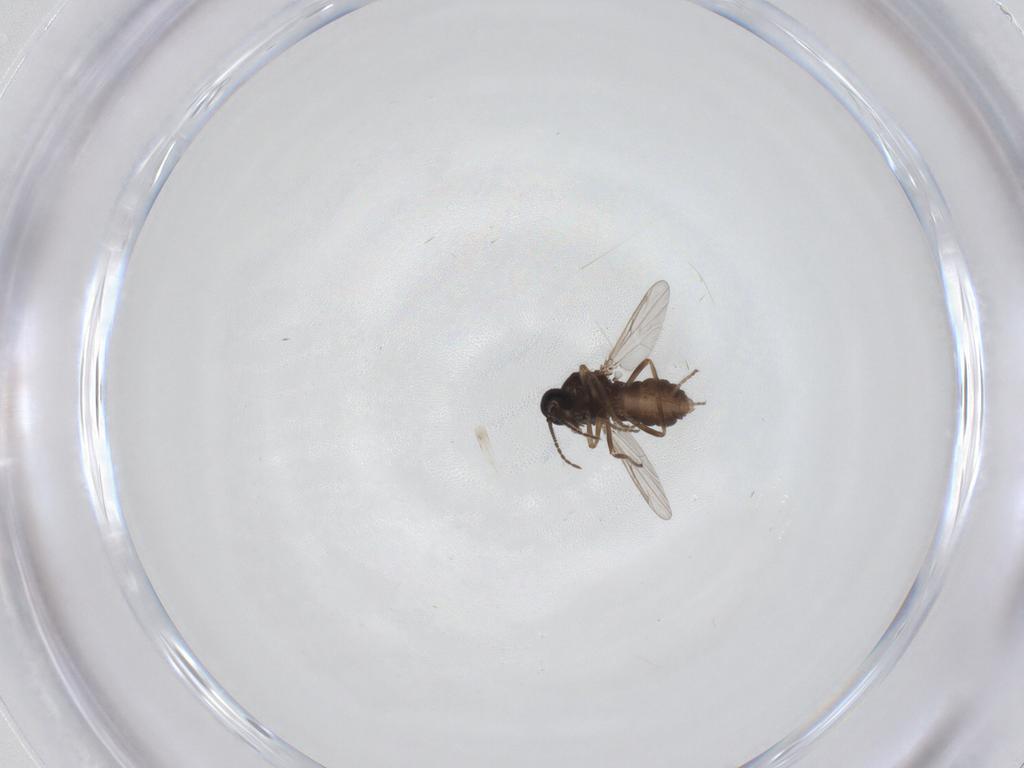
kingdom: Animalia
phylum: Arthropoda
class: Insecta
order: Diptera
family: Ceratopogonidae
